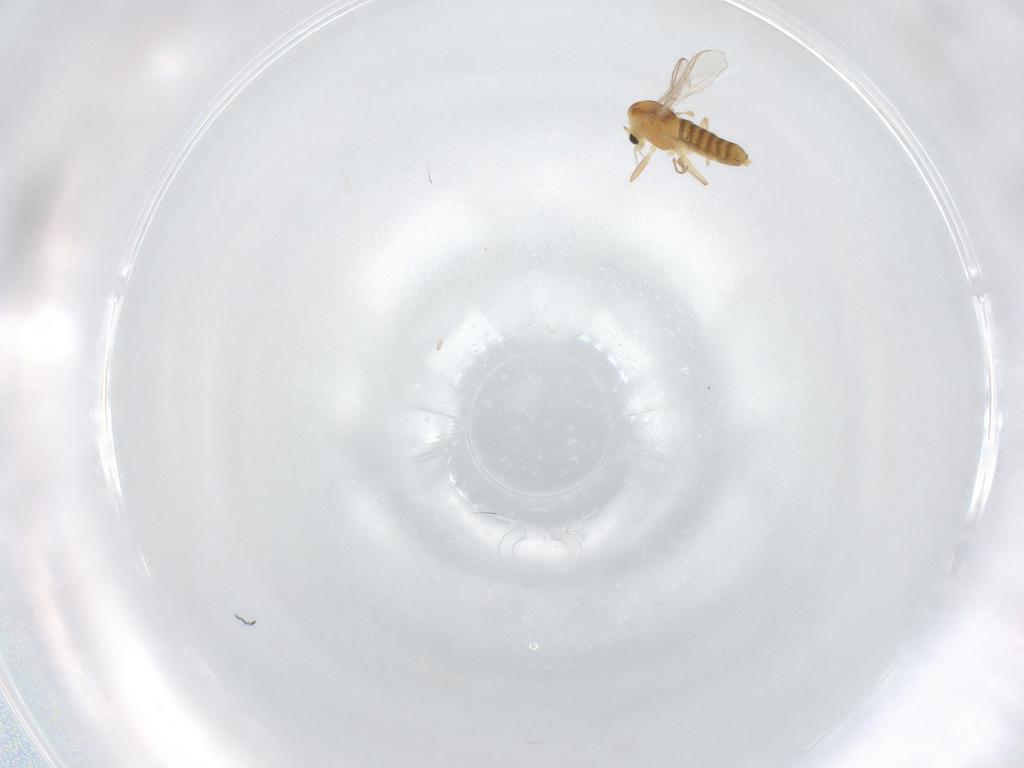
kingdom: Animalia
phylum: Arthropoda
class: Insecta
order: Diptera
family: Chironomidae
